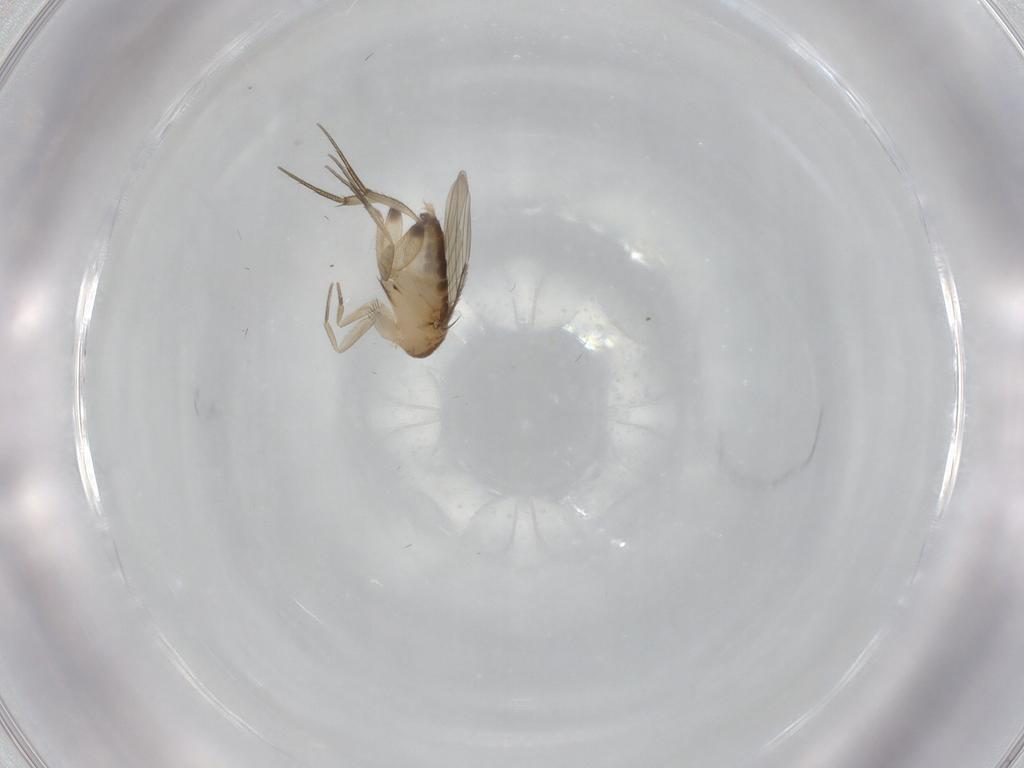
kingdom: Animalia
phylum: Arthropoda
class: Insecta
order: Diptera
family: Phoridae
